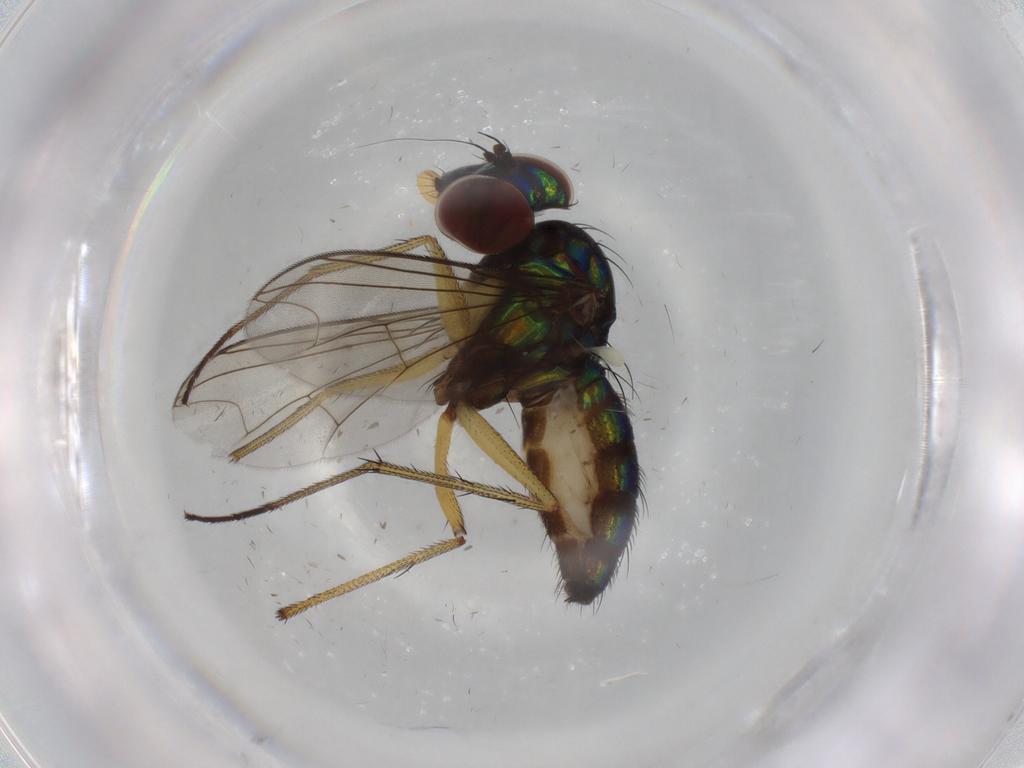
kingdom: Animalia
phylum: Arthropoda
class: Insecta
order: Diptera
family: Dolichopodidae
